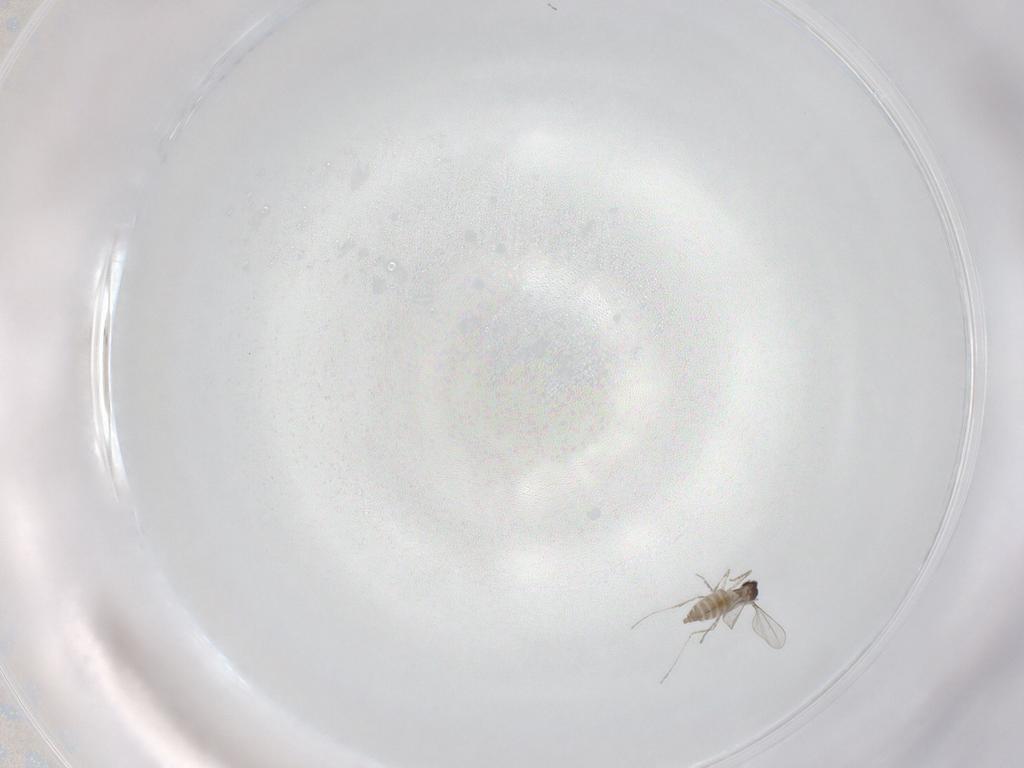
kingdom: Animalia
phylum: Arthropoda
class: Insecta
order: Diptera
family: Cecidomyiidae
